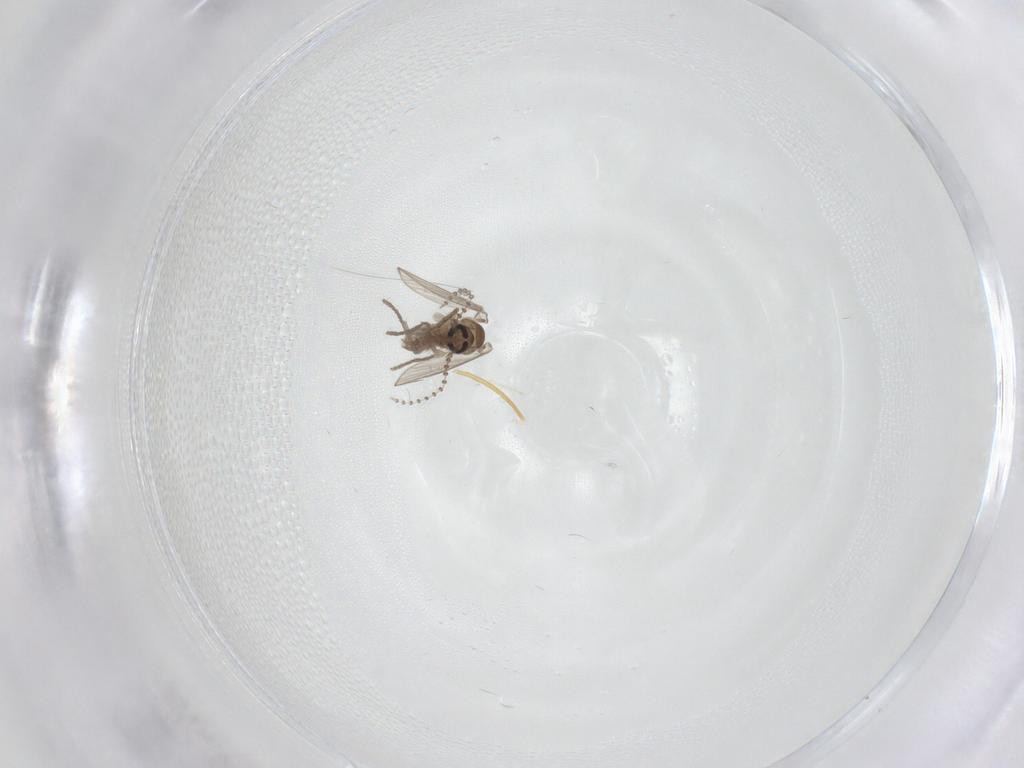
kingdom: Animalia
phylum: Arthropoda
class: Insecta
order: Diptera
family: Psychodidae
